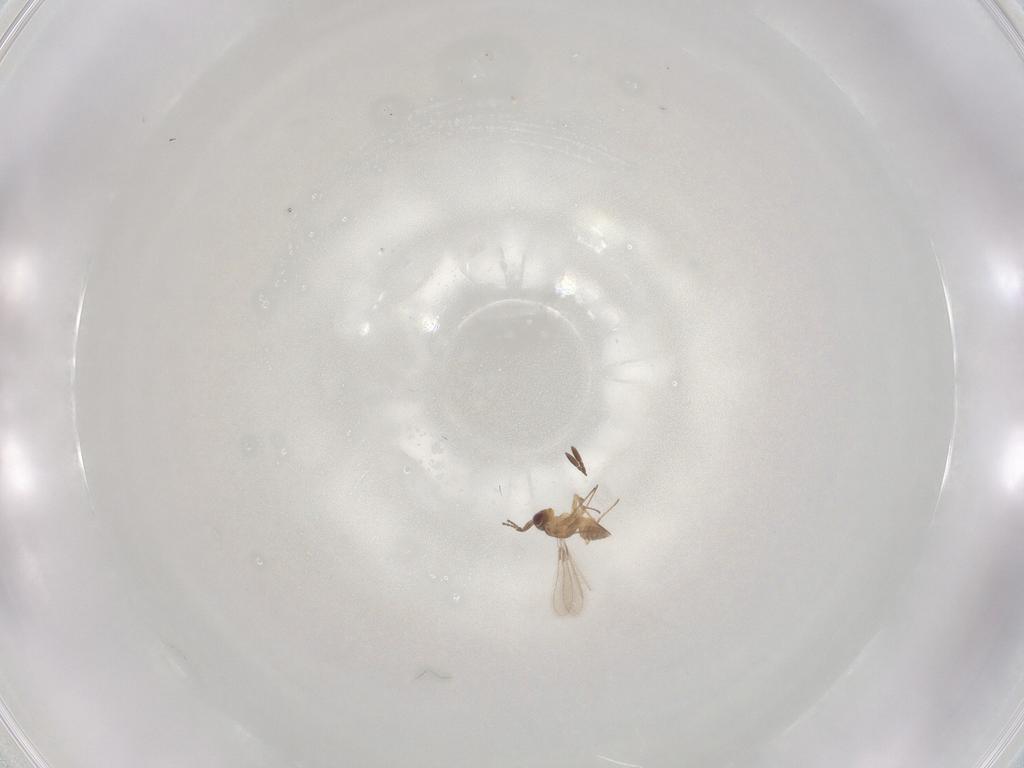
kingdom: Animalia
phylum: Arthropoda
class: Insecta
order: Hymenoptera
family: Mymaridae
